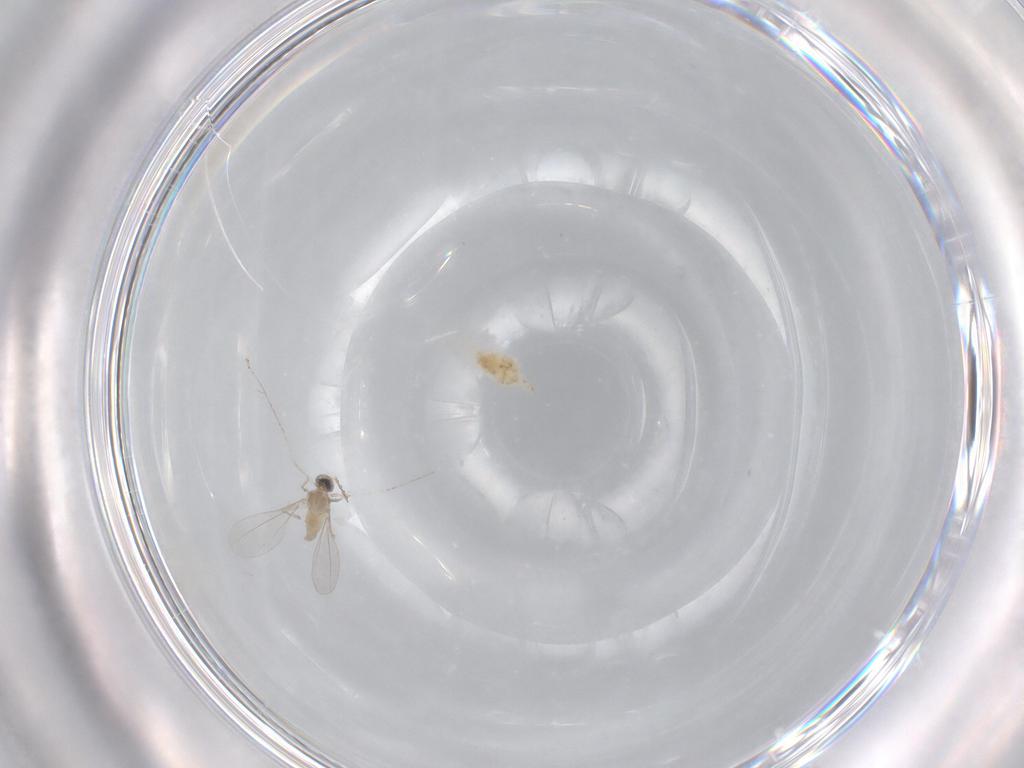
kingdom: Animalia
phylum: Arthropoda
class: Insecta
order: Diptera
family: Cecidomyiidae
